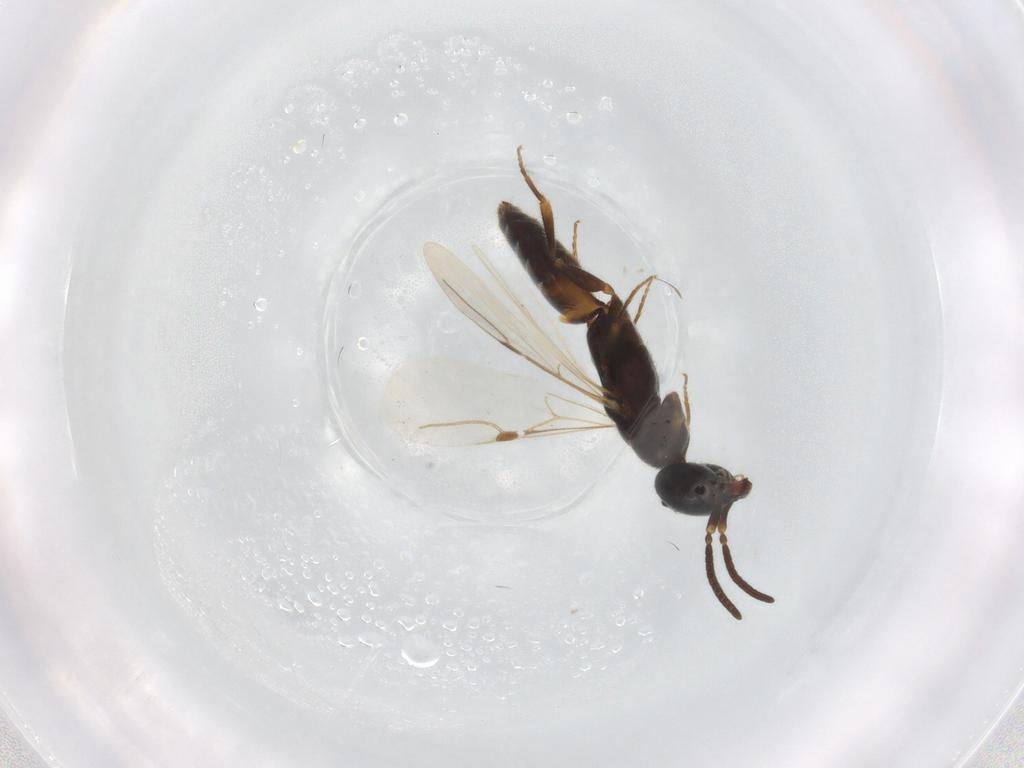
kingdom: Animalia
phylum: Arthropoda
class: Insecta
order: Hymenoptera
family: Bethylidae
